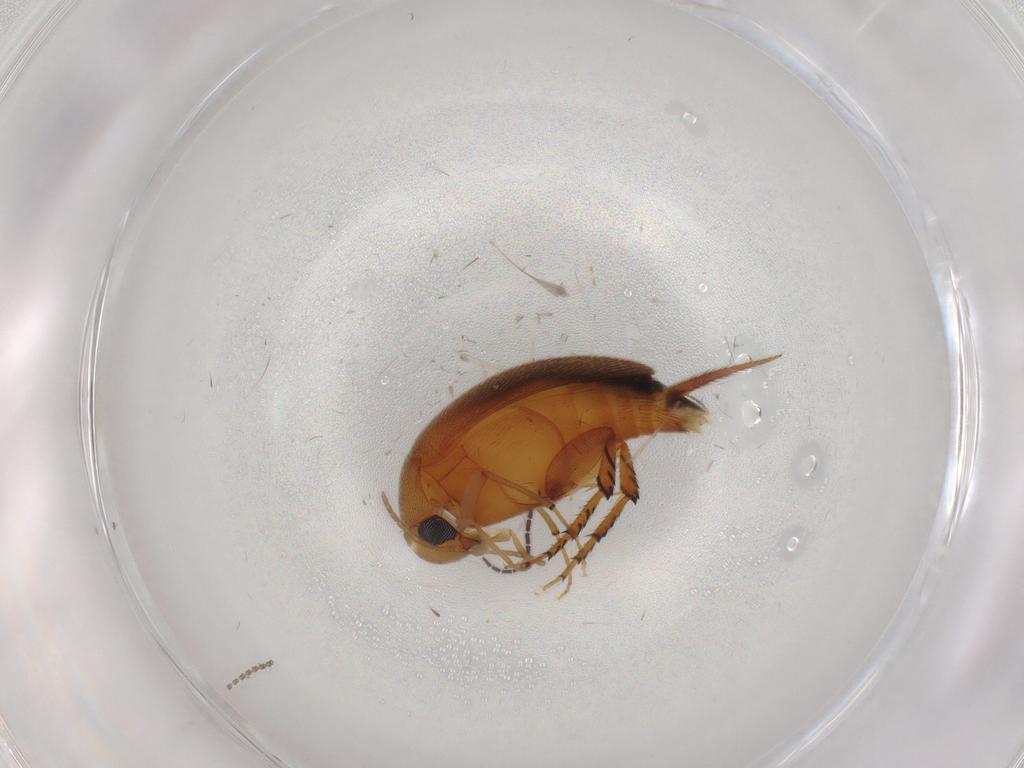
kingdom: Animalia
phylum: Arthropoda
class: Insecta
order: Coleoptera
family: Mordellidae
